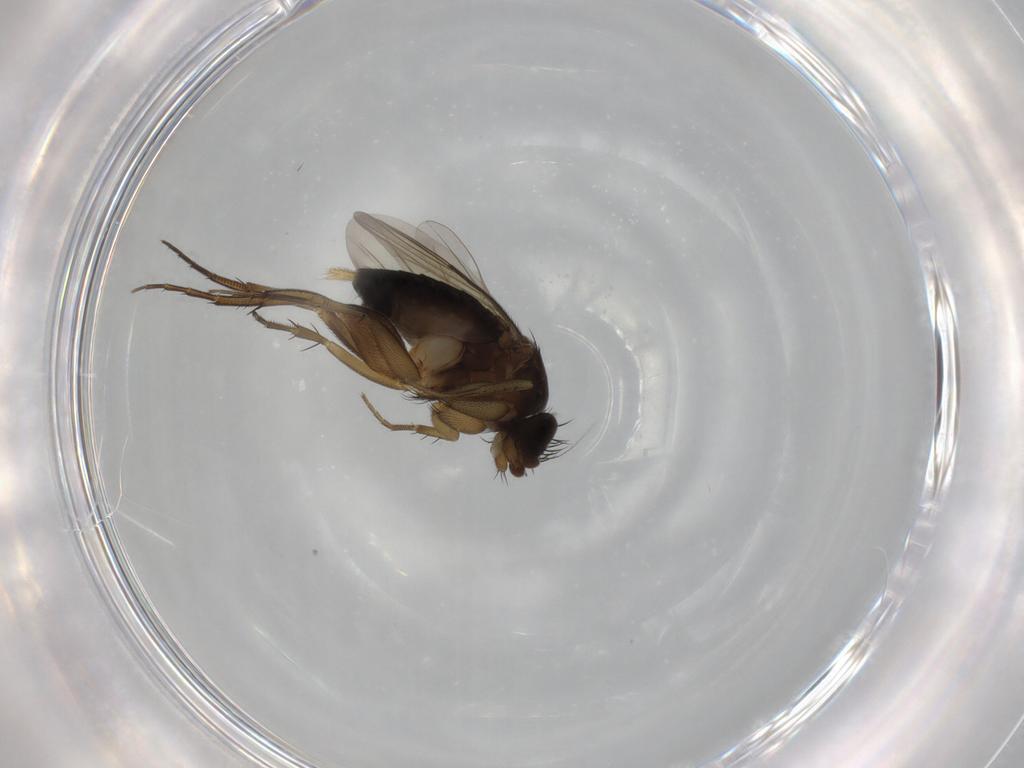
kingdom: Animalia
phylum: Arthropoda
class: Insecta
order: Diptera
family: Phoridae
